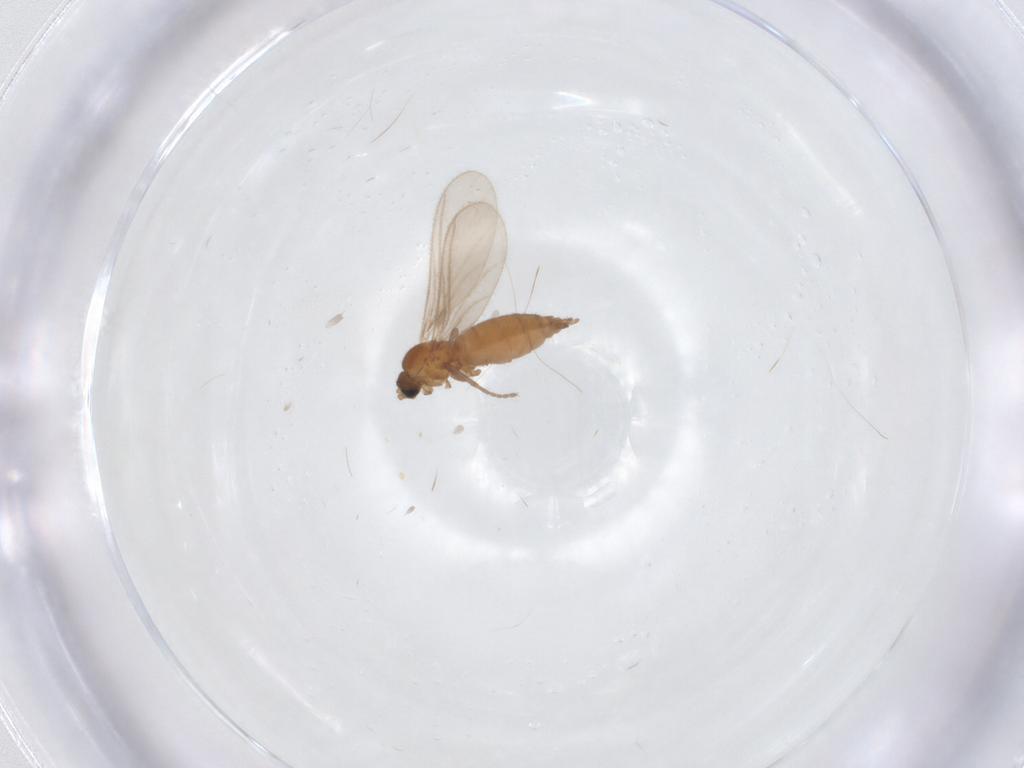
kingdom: Animalia
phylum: Arthropoda
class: Insecta
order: Diptera
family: Sciaridae
